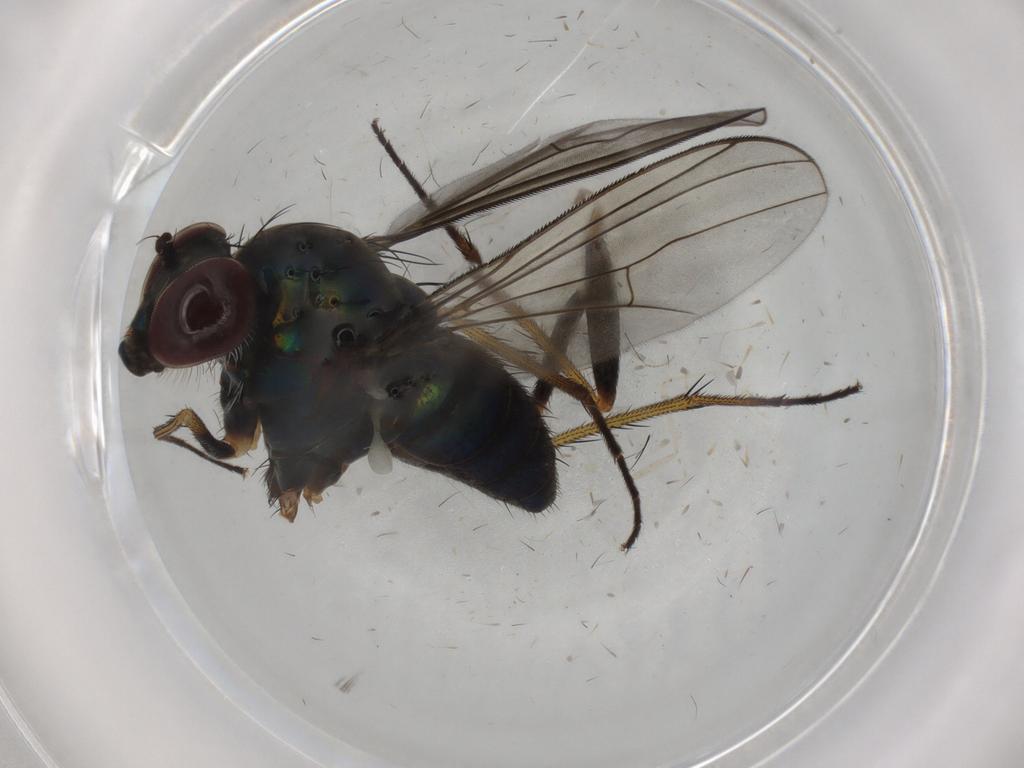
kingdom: Animalia
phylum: Arthropoda
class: Insecta
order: Diptera
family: Dolichopodidae
